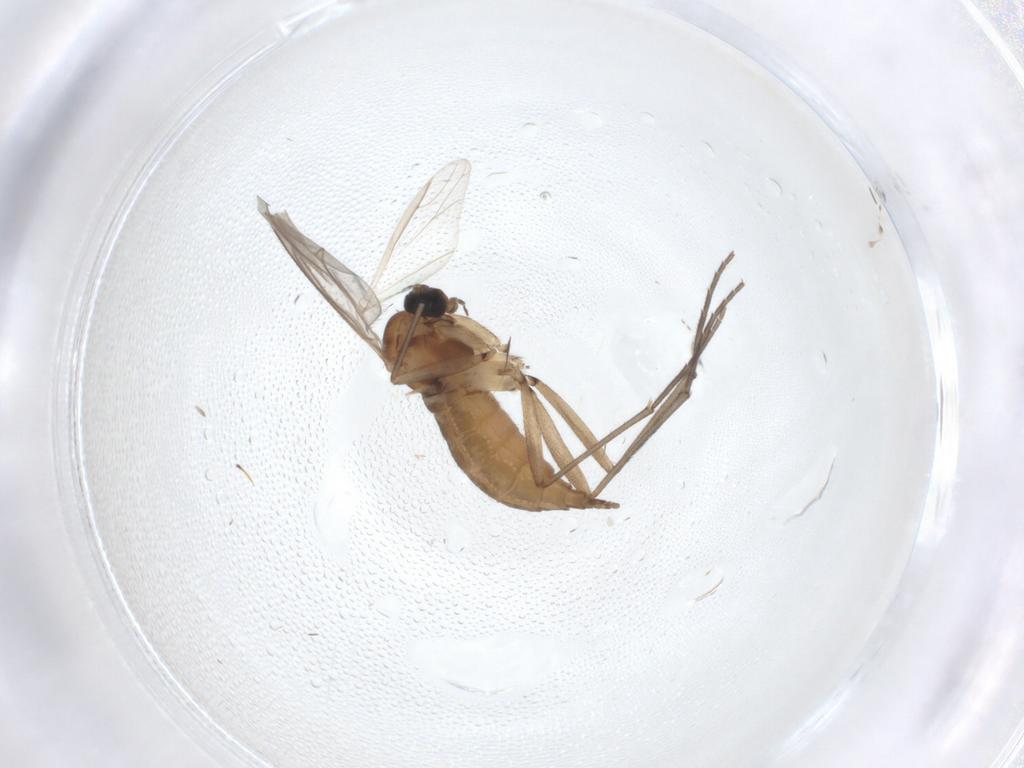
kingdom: Animalia
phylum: Arthropoda
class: Insecta
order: Diptera
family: Sciaridae
